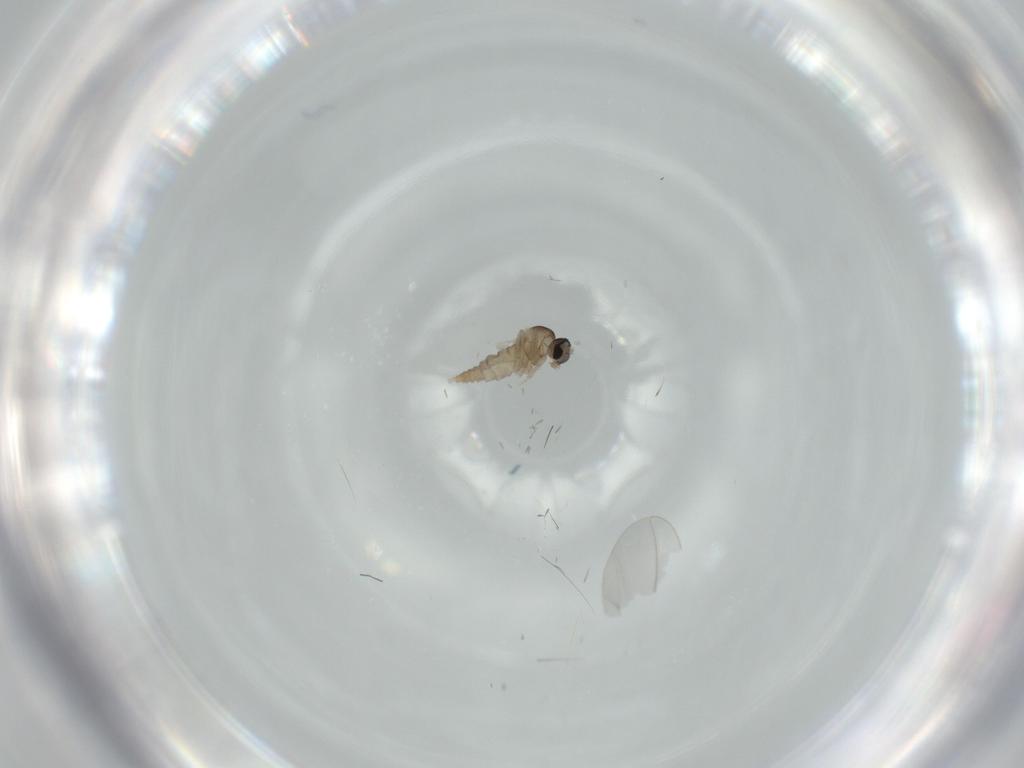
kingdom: Animalia
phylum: Arthropoda
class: Insecta
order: Diptera
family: Cecidomyiidae
